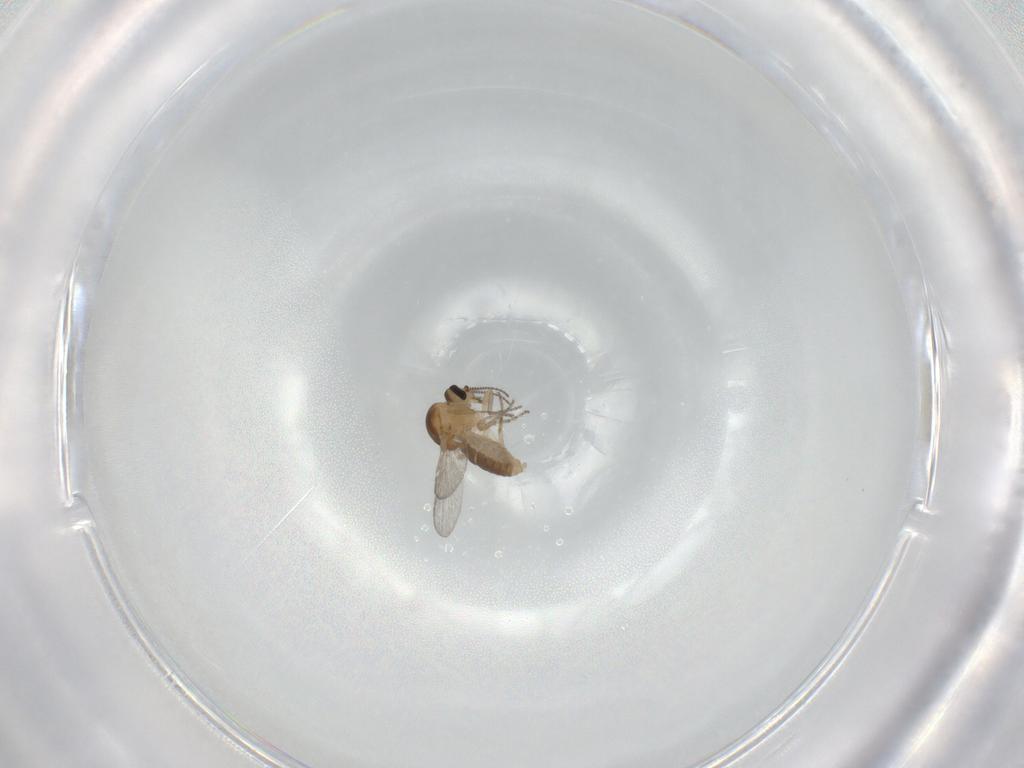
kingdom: Animalia
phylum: Arthropoda
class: Insecta
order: Diptera
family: Ceratopogonidae
